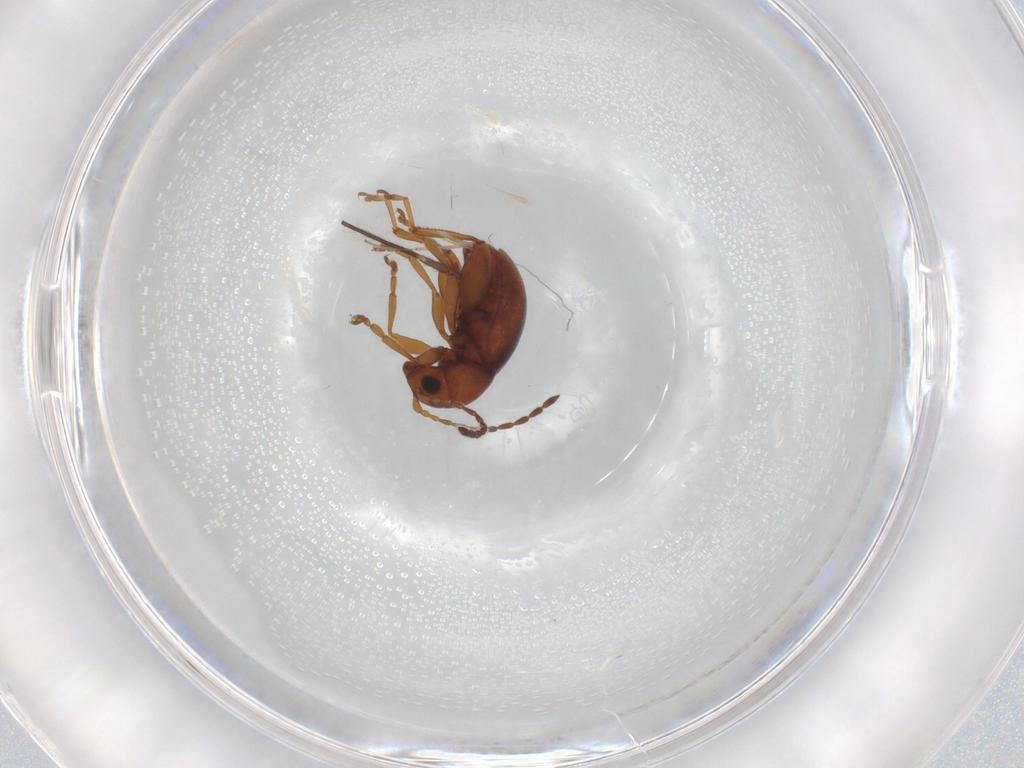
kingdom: Animalia
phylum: Arthropoda
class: Insecta
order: Coleoptera
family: Chrysomelidae
